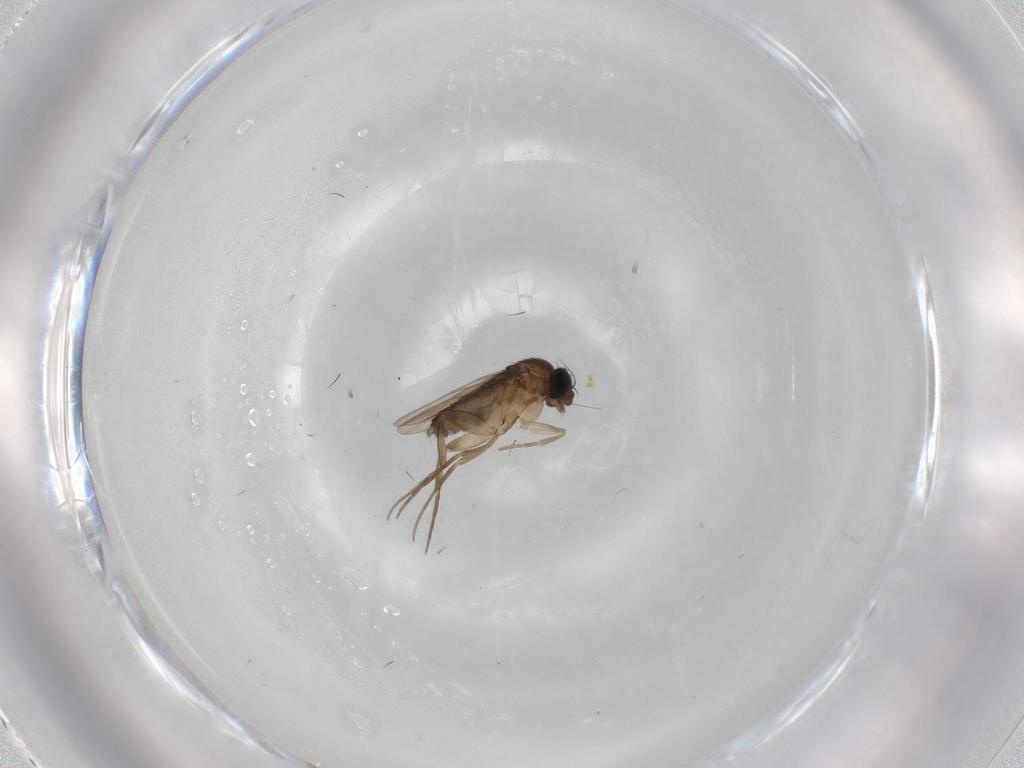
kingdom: Animalia
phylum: Arthropoda
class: Insecta
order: Diptera
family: Phoridae
